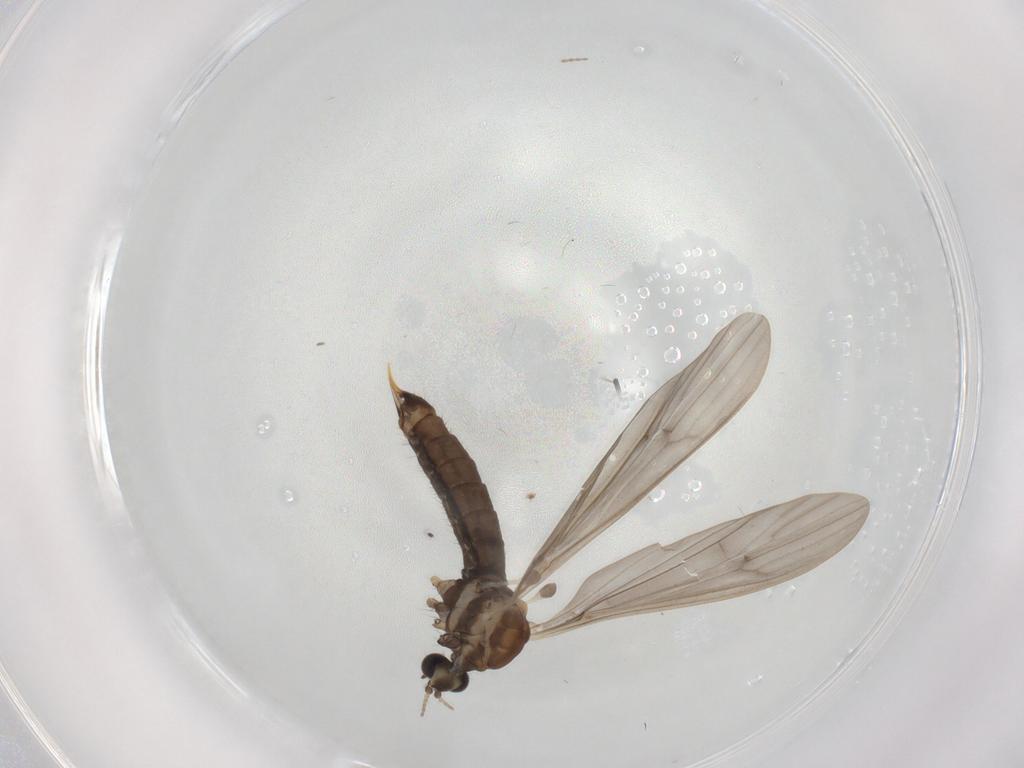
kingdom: Animalia
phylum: Arthropoda
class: Insecta
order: Diptera
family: Limoniidae
